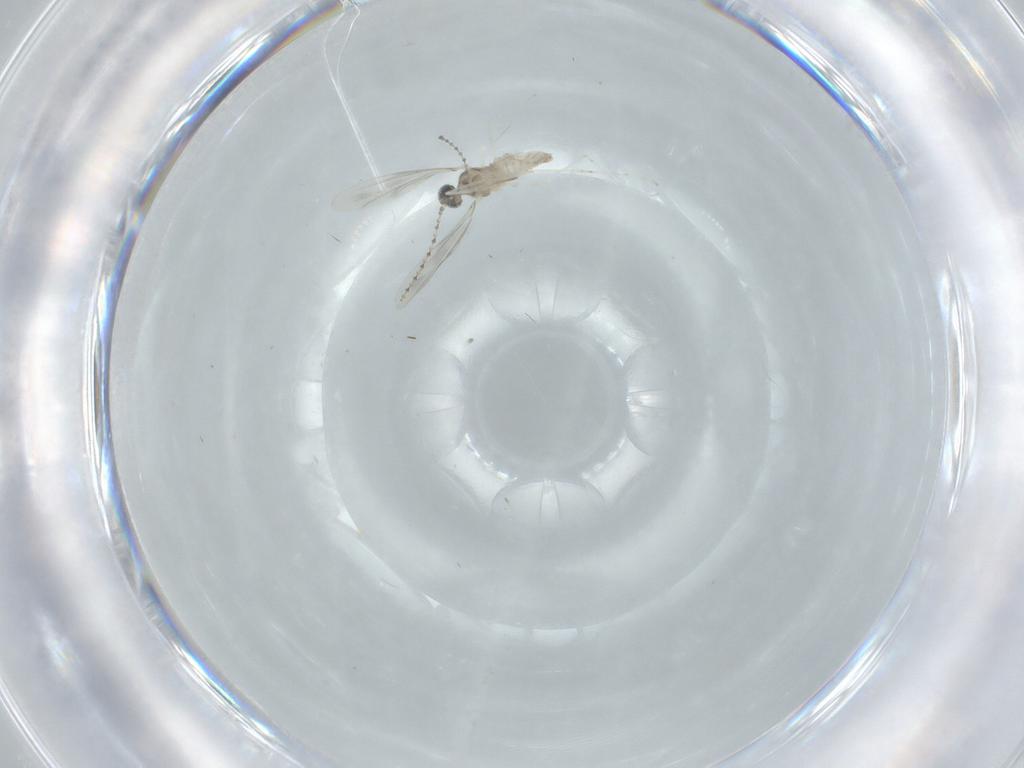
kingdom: Animalia
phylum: Arthropoda
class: Insecta
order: Diptera
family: Cecidomyiidae
